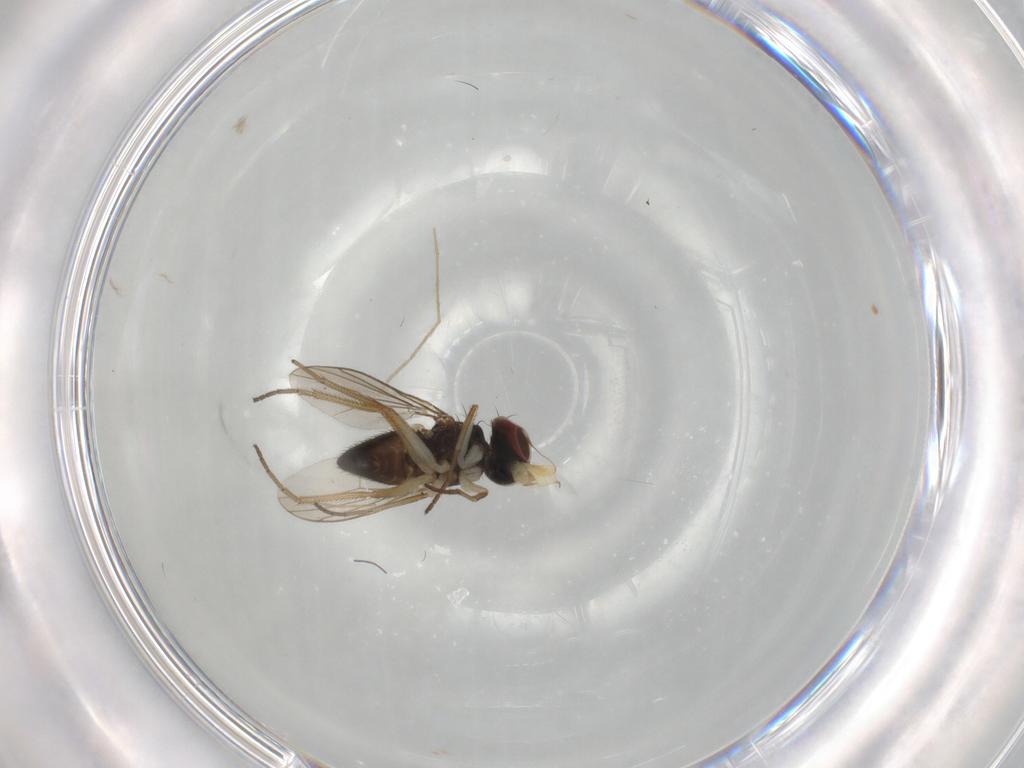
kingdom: Animalia
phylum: Arthropoda
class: Insecta
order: Diptera
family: Dolichopodidae
